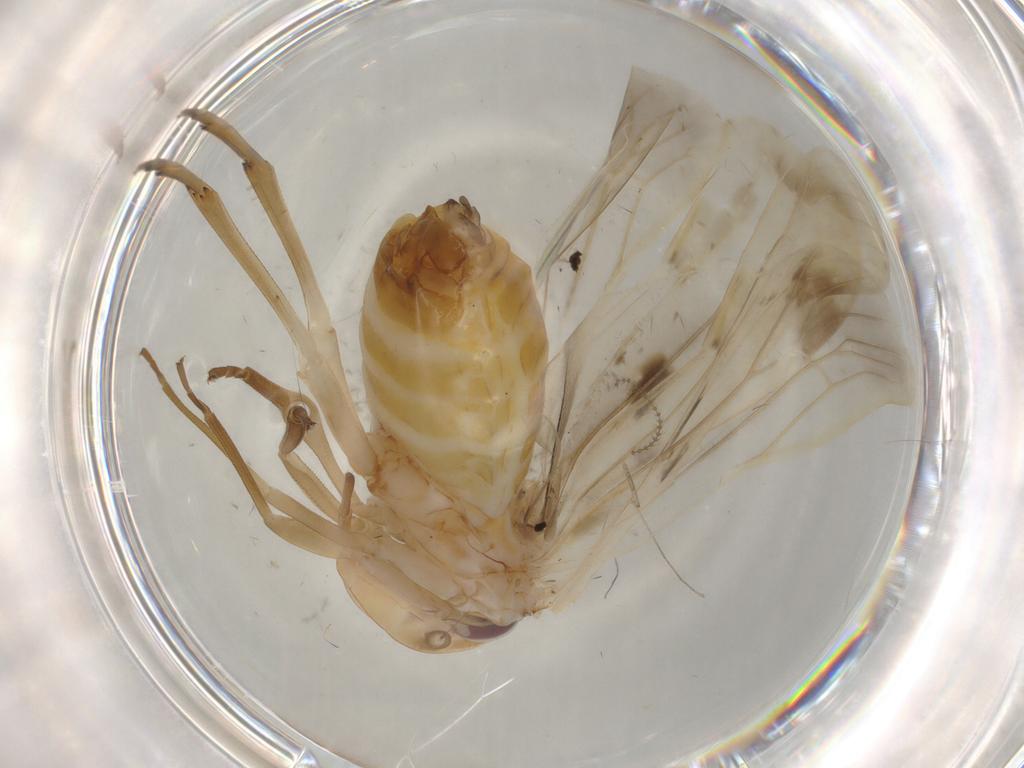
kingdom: Animalia
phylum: Arthropoda
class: Insecta
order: Hemiptera
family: Achilidae
